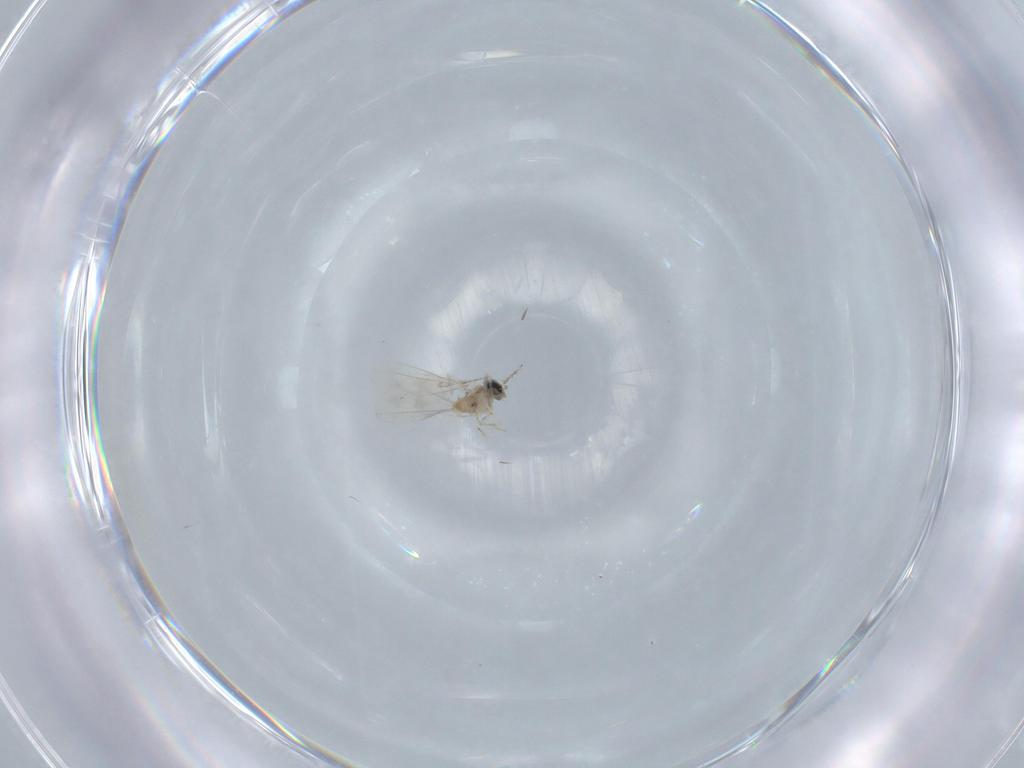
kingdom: Animalia
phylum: Arthropoda
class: Insecta
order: Diptera
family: Cecidomyiidae
